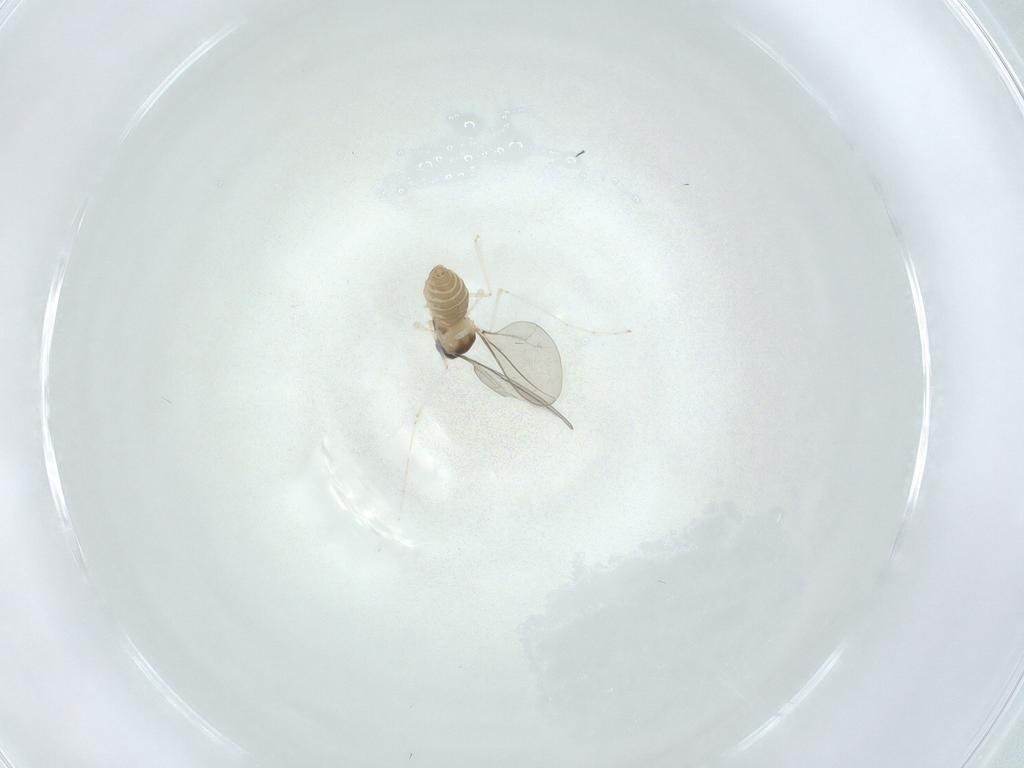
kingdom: Animalia
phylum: Arthropoda
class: Insecta
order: Diptera
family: Cecidomyiidae
